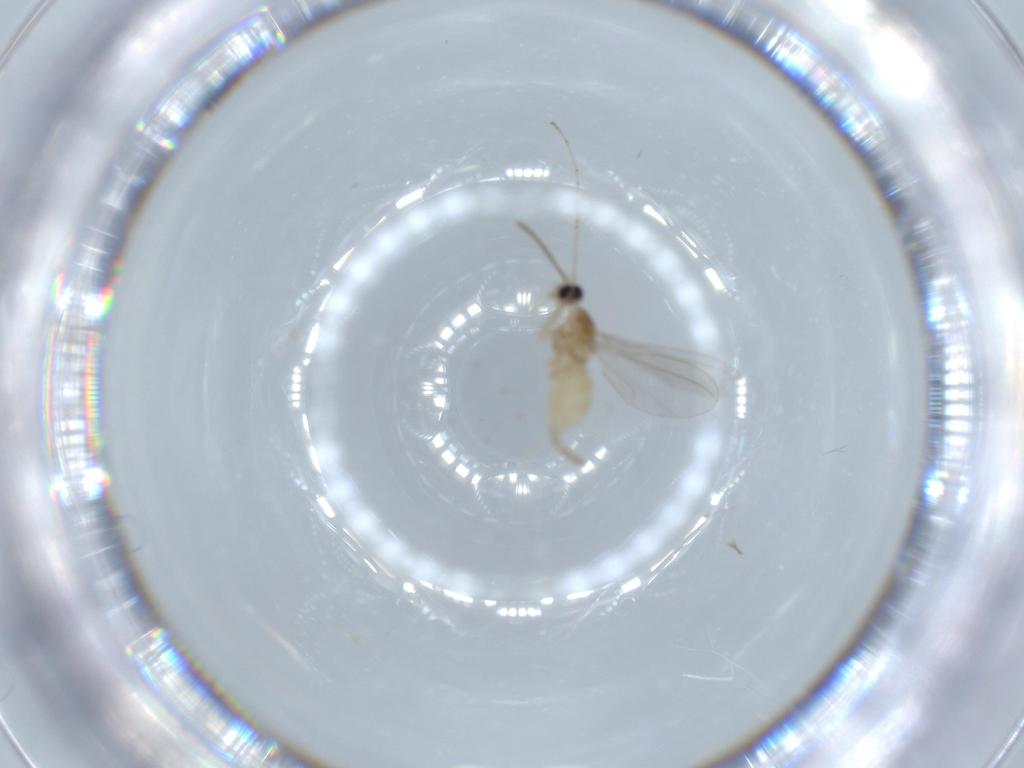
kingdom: Animalia
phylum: Arthropoda
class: Insecta
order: Diptera
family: Cecidomyiidae
